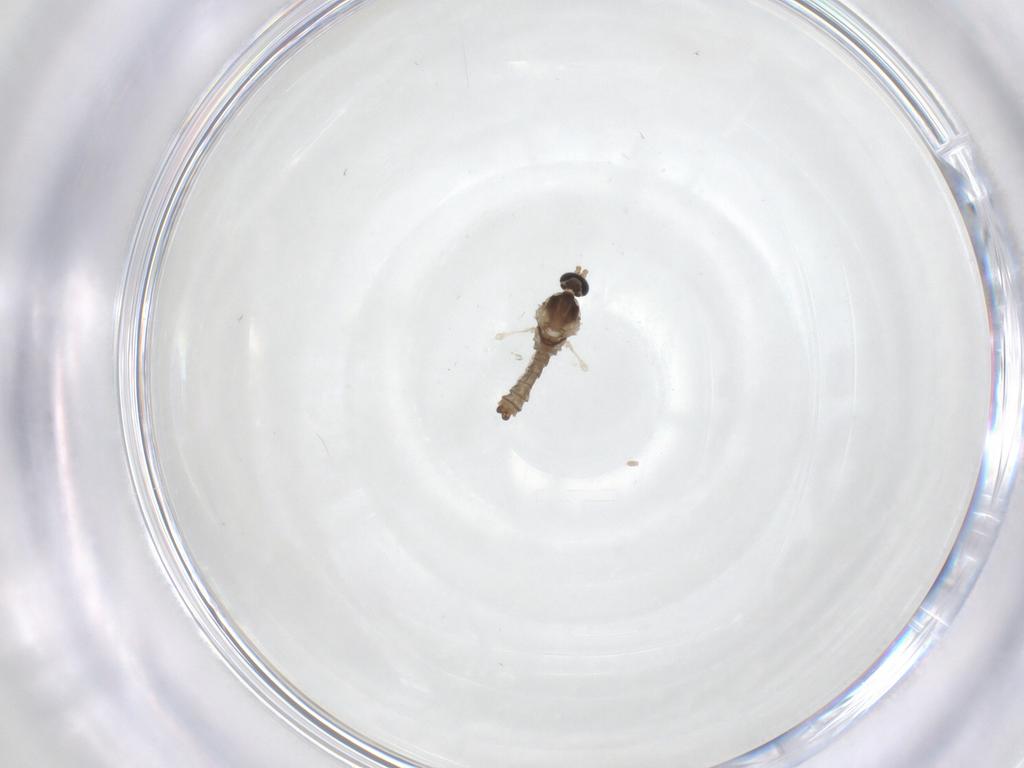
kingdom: Animalia
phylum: Arthropoda
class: Insecta
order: Diptera
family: Cecidomyiidae
